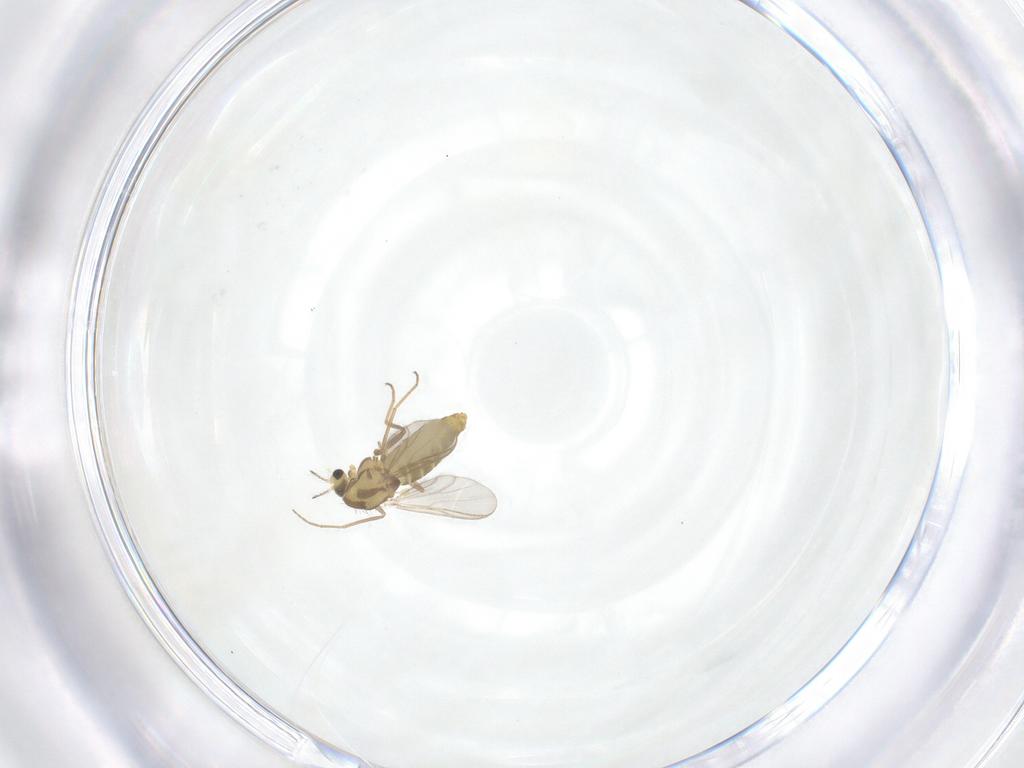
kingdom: Animalia
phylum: Arthropoda
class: Insecta
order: Diptera
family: Chironomidae
